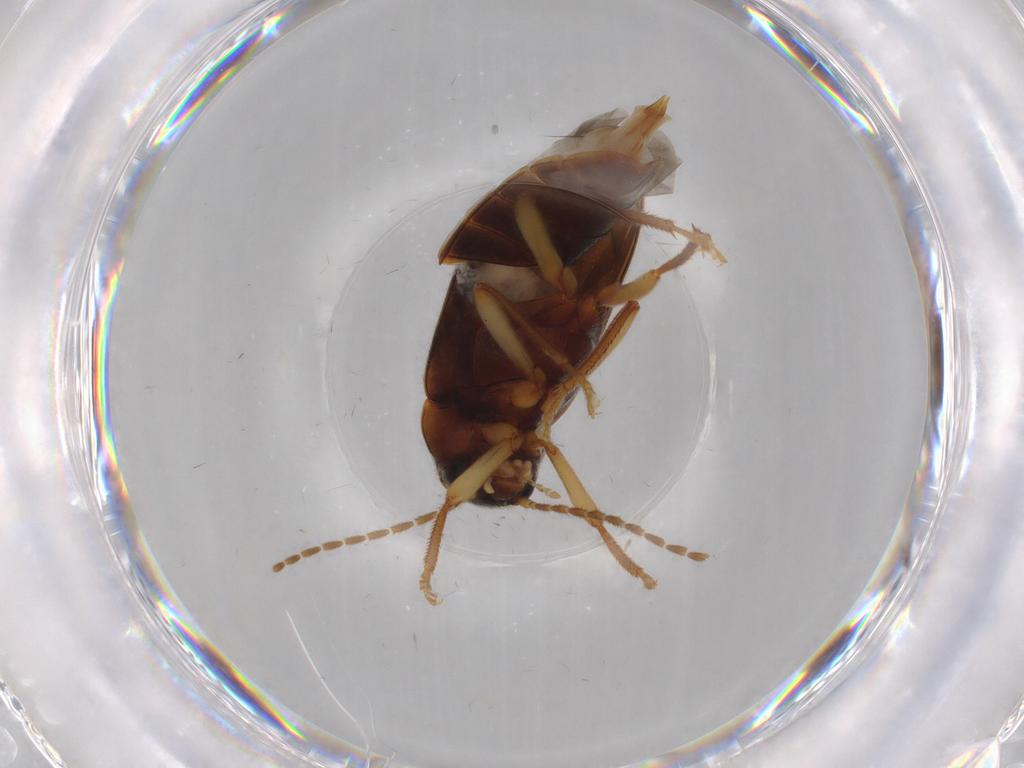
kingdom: Animalia
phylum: Arthropoda
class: Insecta
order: Coleoptera
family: Ptilodactylidae
